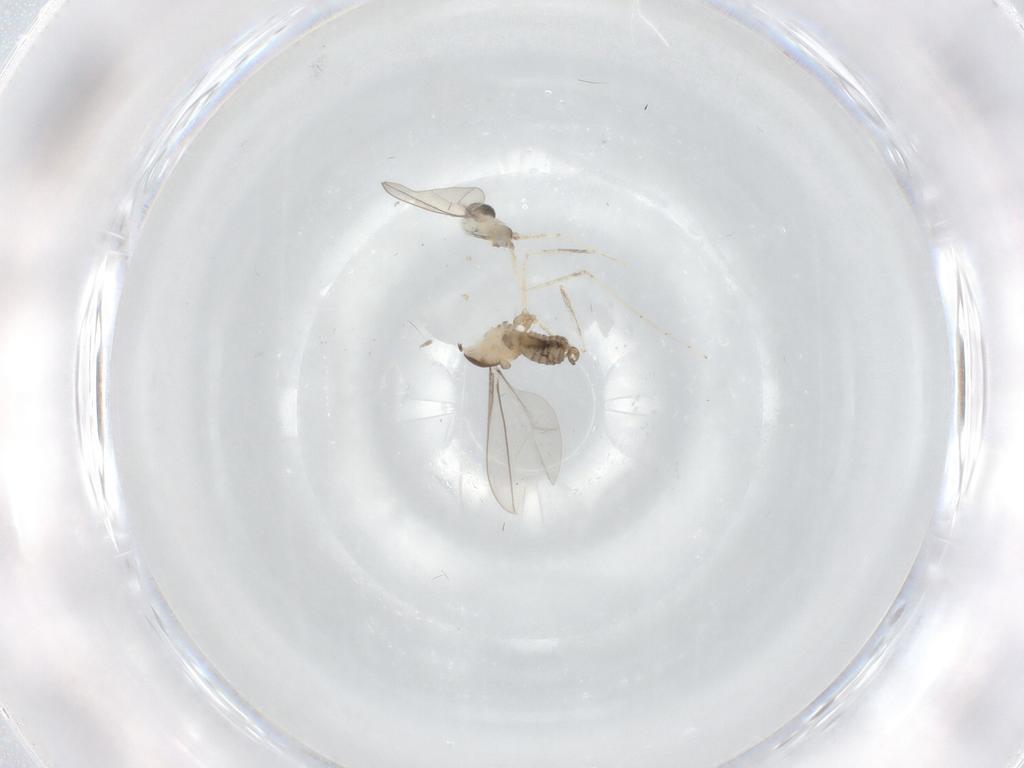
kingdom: Animalia
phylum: Arthropoda
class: Insecta
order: Diptera
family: Cecidomyiidae
